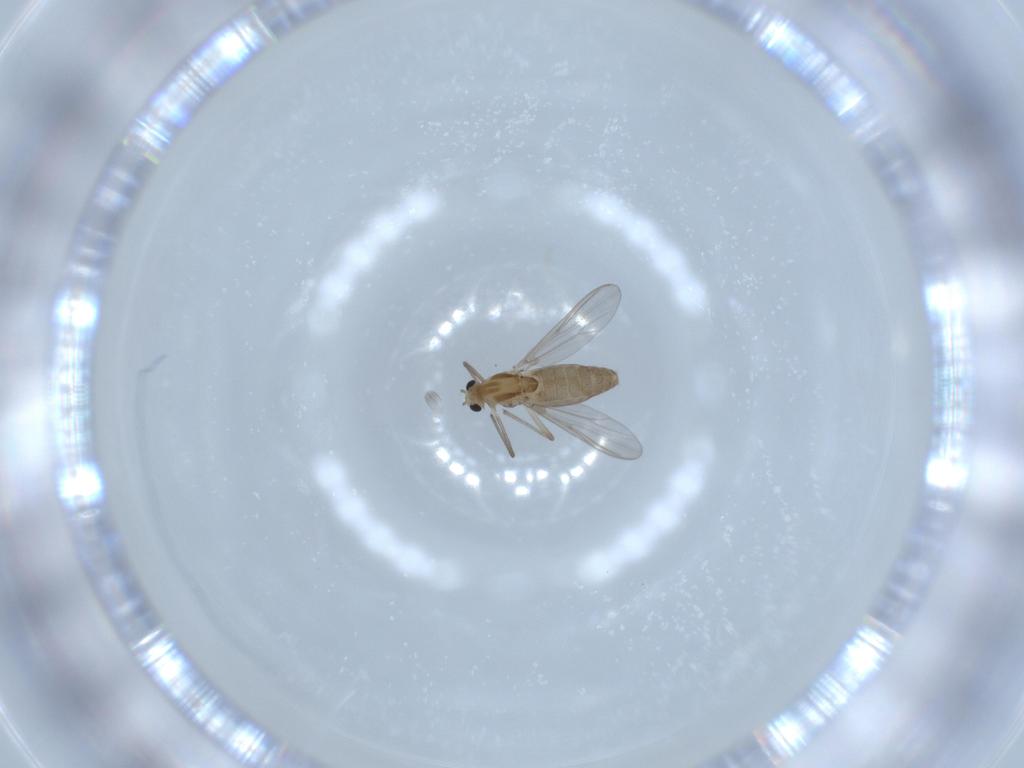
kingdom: Animalia
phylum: Arthropoda
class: Insecta
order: Diptera
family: Chironomidae
